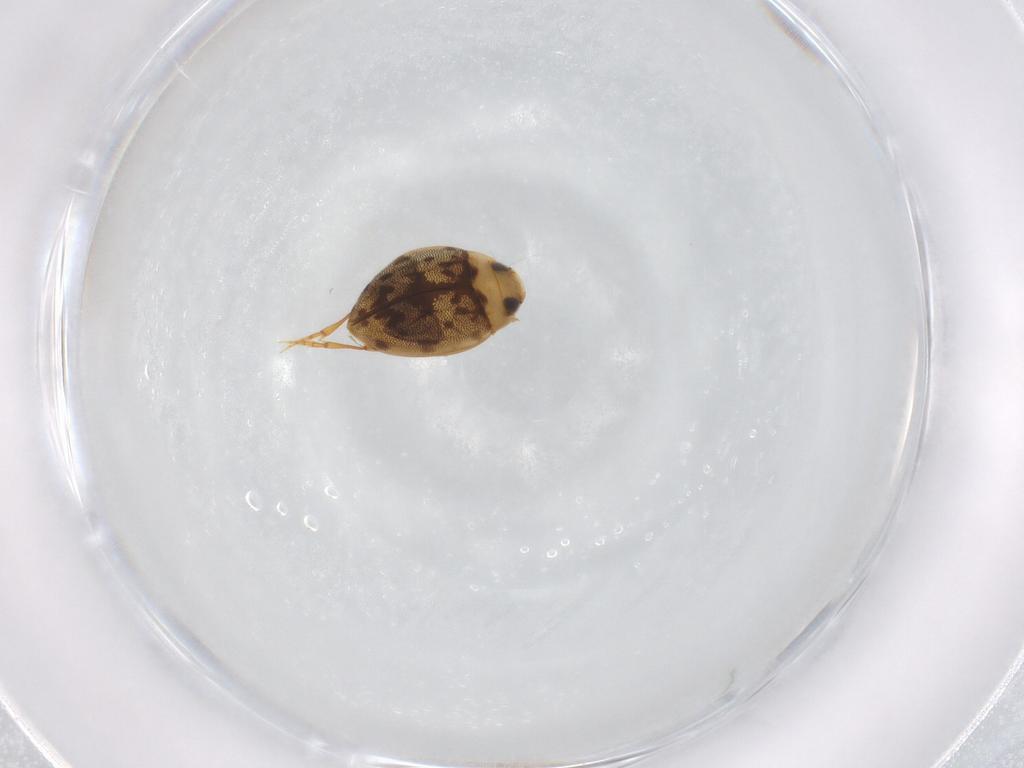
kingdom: Animalia
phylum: Arthropoda
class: Insecta
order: Coleoptera
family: Dytiscidae
